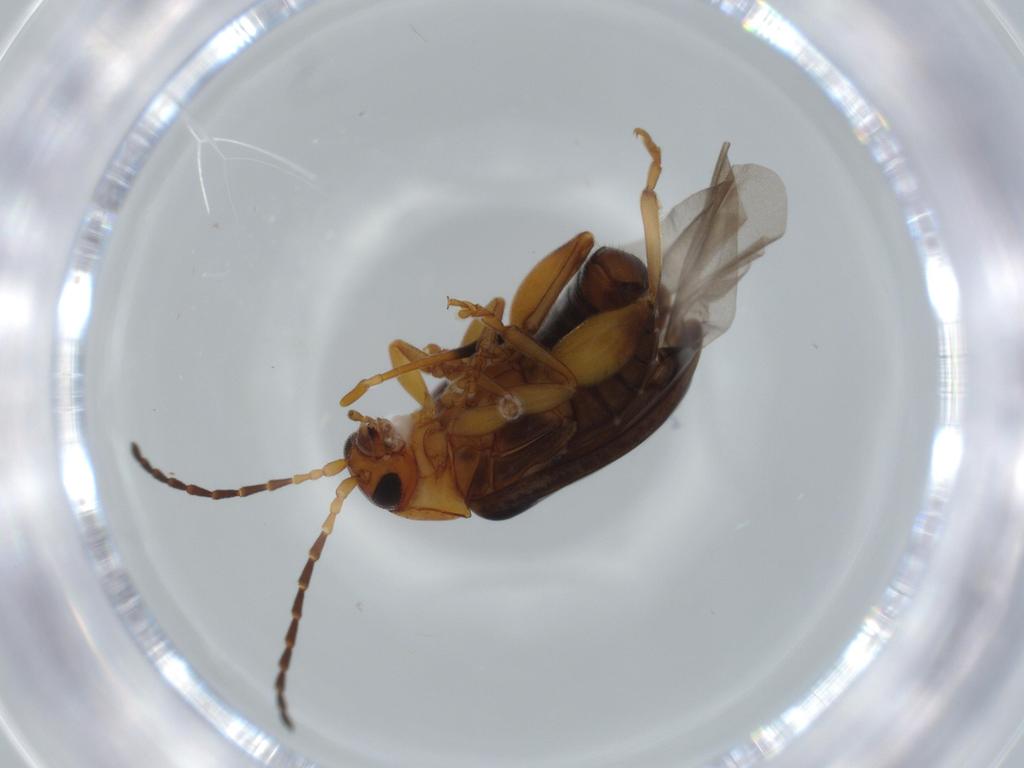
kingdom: Animalia
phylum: Arthropoda
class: Insecta
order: Coleoptera
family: Chrysomelidae
